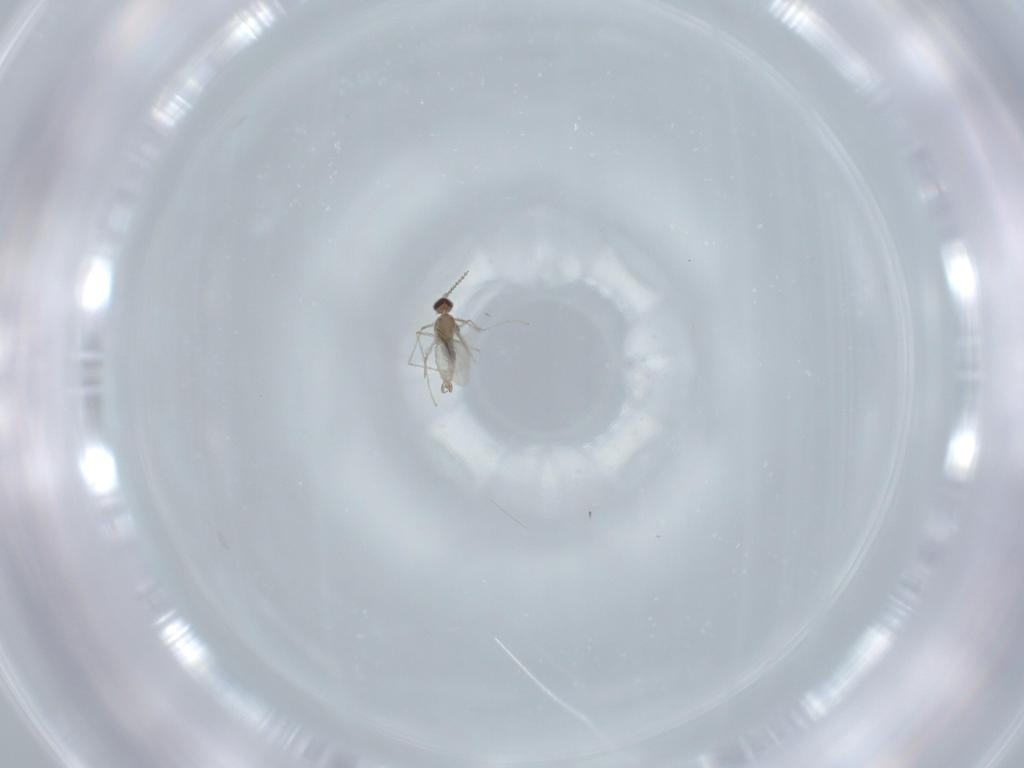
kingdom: Animalia
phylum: Arthropoda
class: Insecta
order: Diptera
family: Cecidomyiidae
